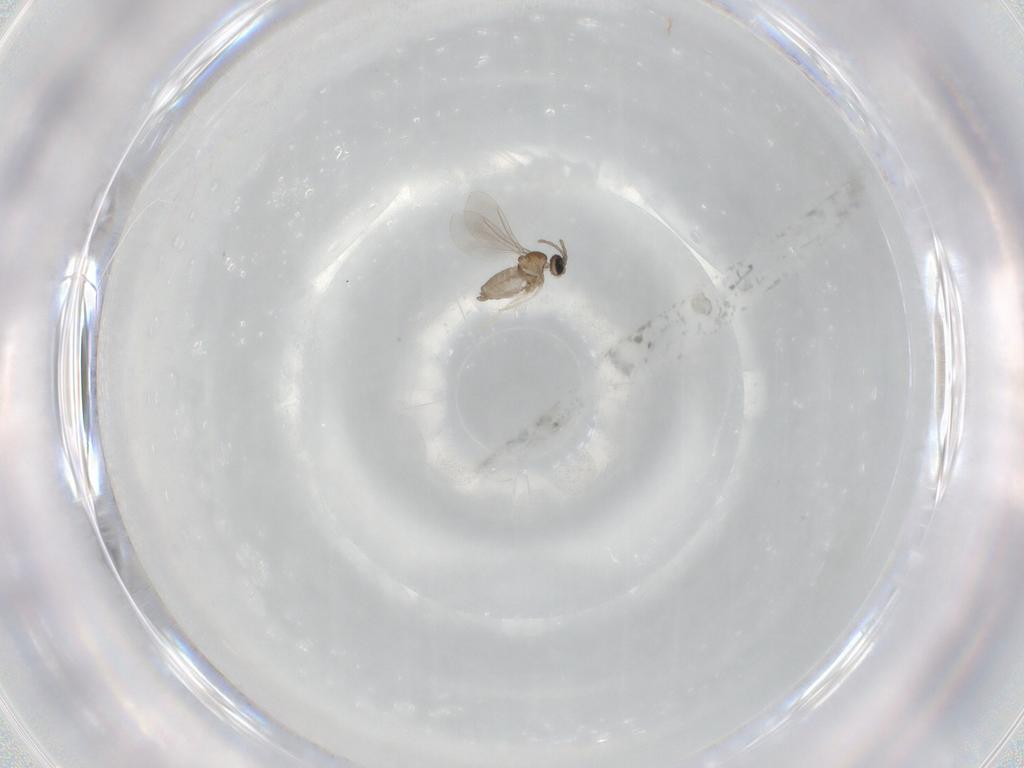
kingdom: Animalia
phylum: Arthropoda
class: Insecta
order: Diptera
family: Cecidomyiidae
